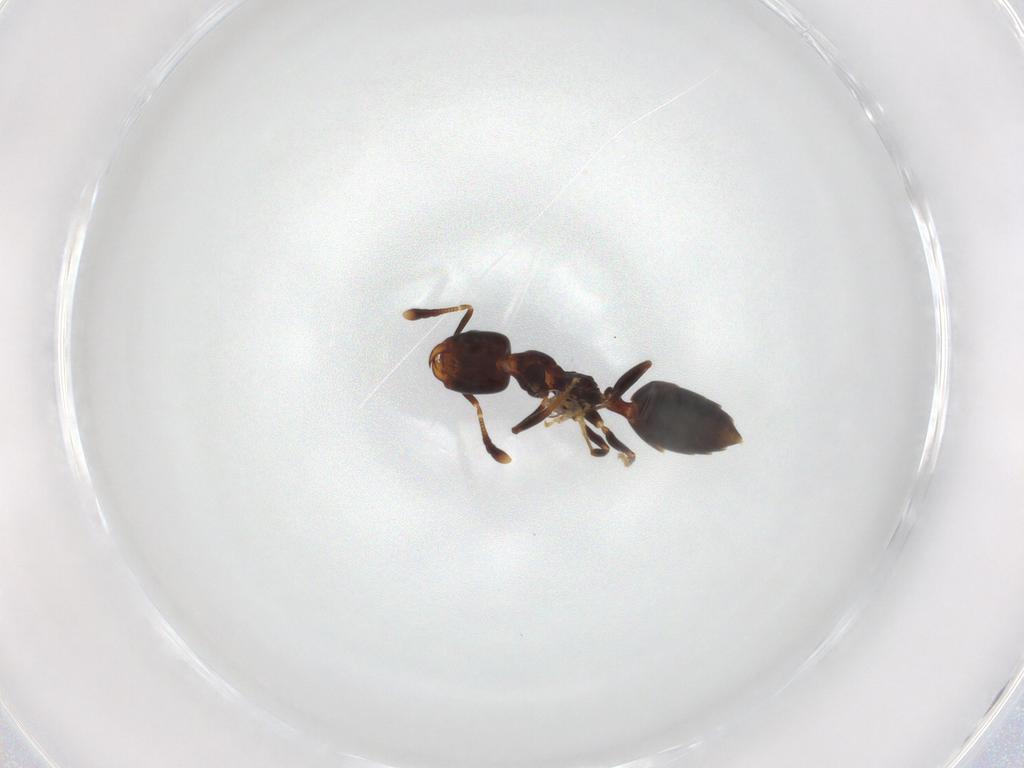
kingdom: Animalia
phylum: Arthropoda
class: Insecta
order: Hymenoptera
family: Formicidae
